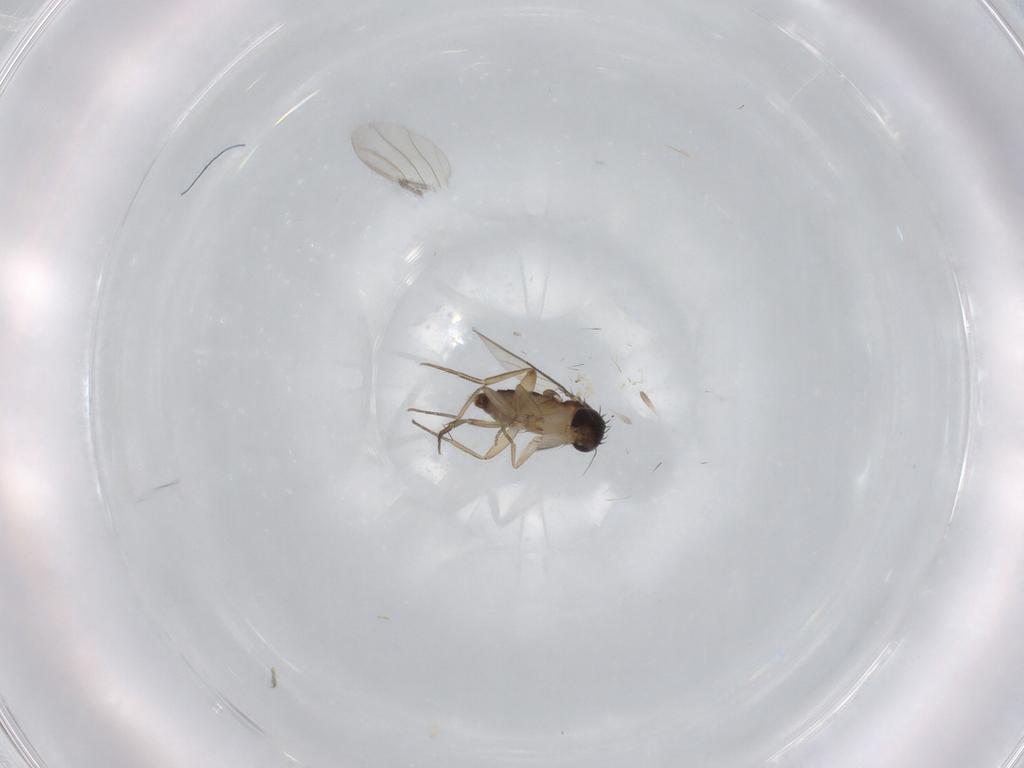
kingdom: Animalia
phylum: Arthropoda
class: Insecta
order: Diptera
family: Phoridae
